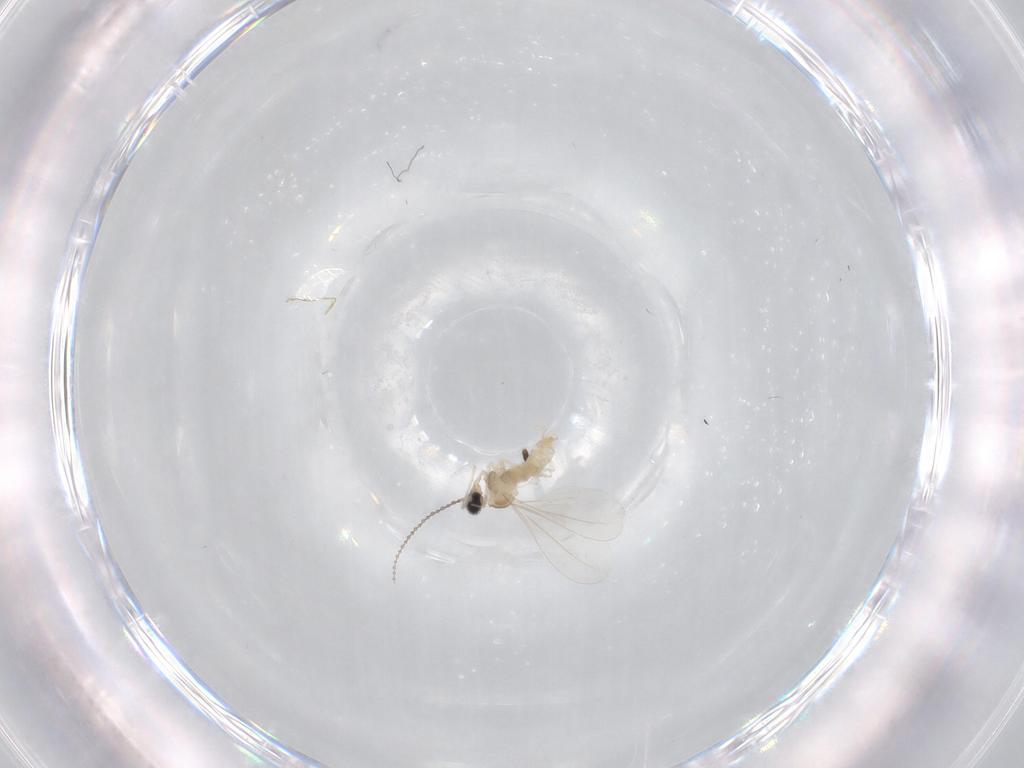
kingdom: Animalia
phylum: Arthropoda
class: Insecta
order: Diptera
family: Cecidomyiidae
